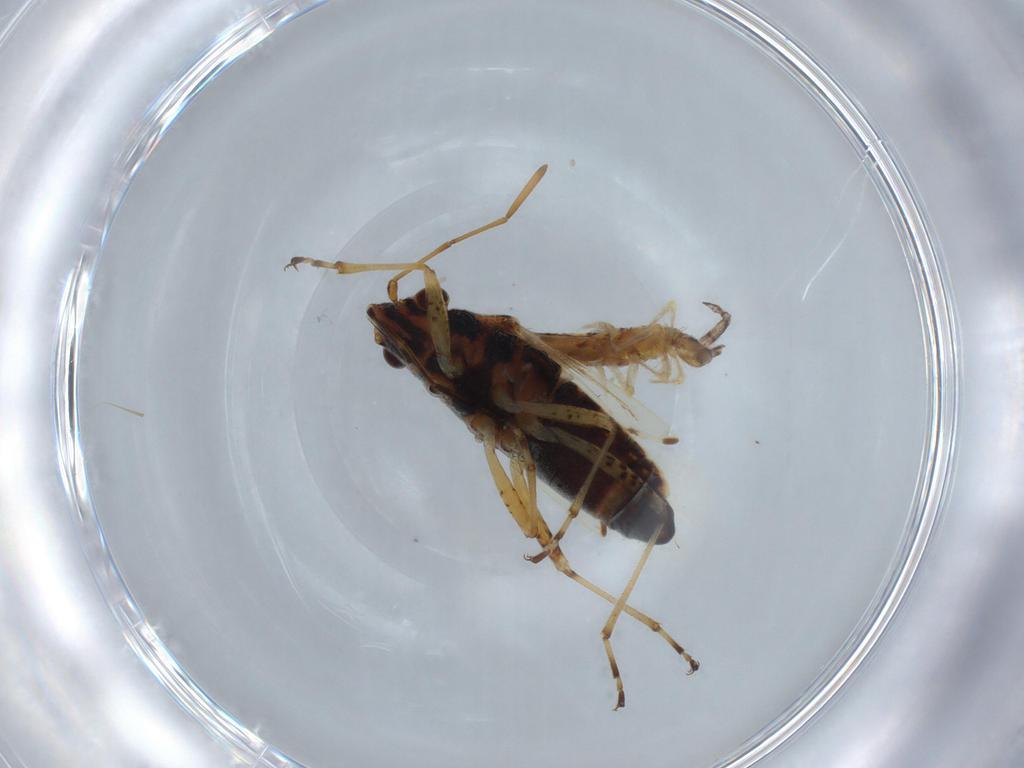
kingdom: Animalia
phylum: Arthropoda
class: Insecta
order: Hemiptera
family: Lygaeidae
